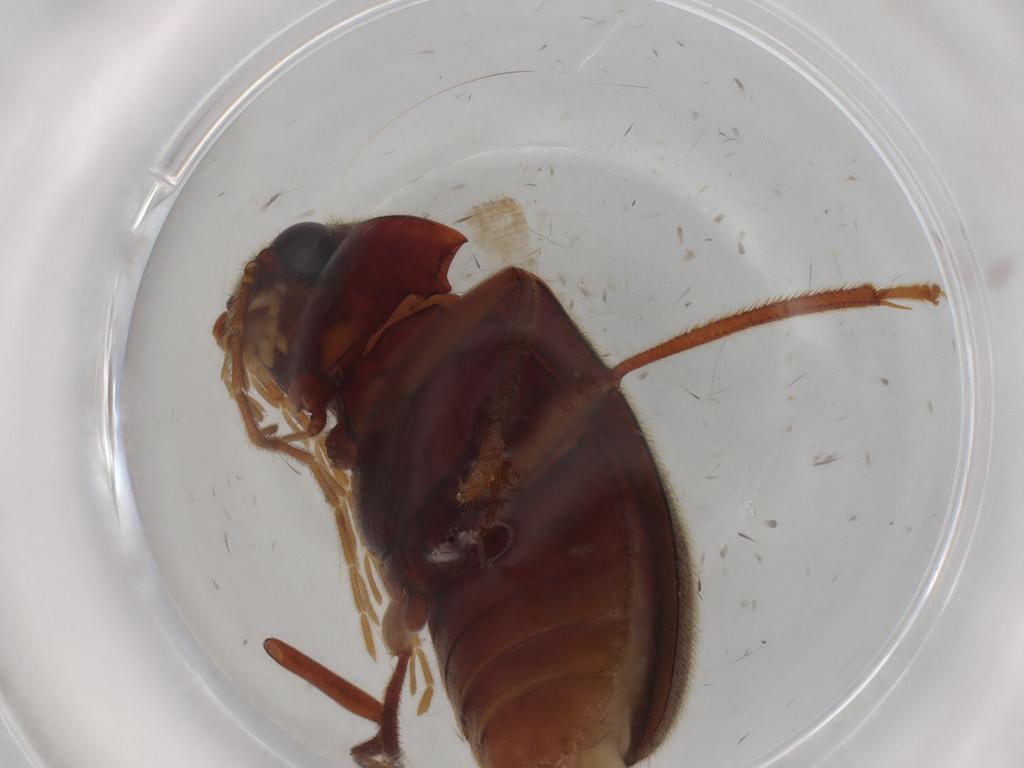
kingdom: Animalia
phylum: Arthropoda
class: Insecta
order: Coleoptera
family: Ptilodactylidae
